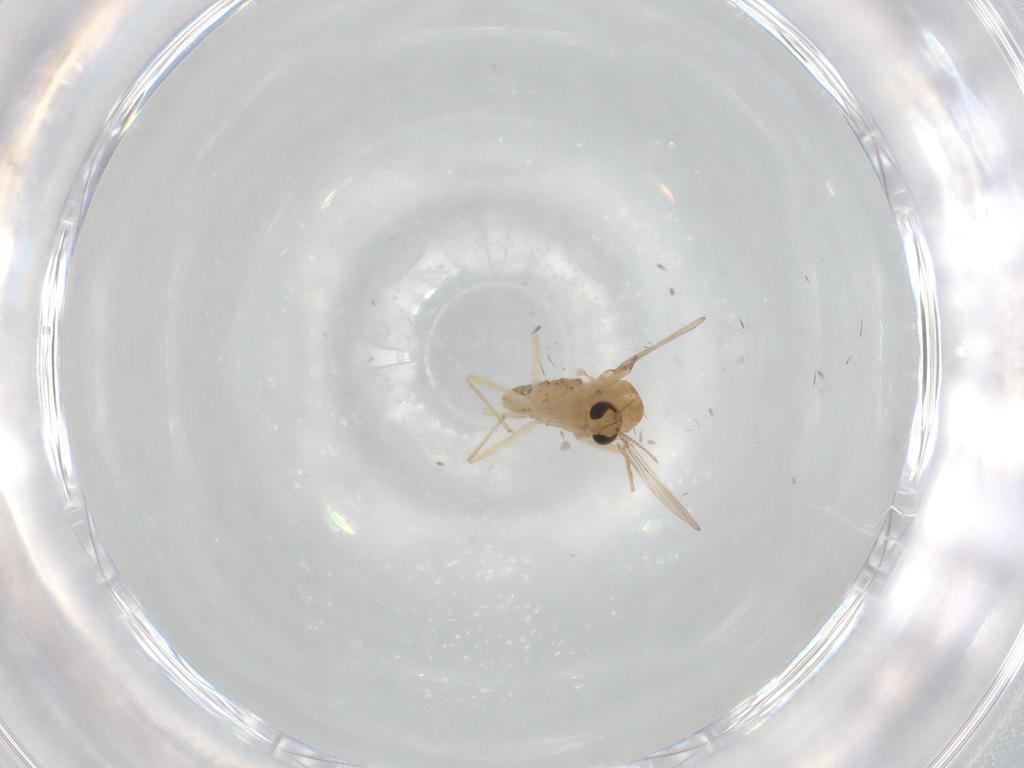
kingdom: Animalia
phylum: Arthropoda
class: Insecta
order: Diptera
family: Chironomidae
